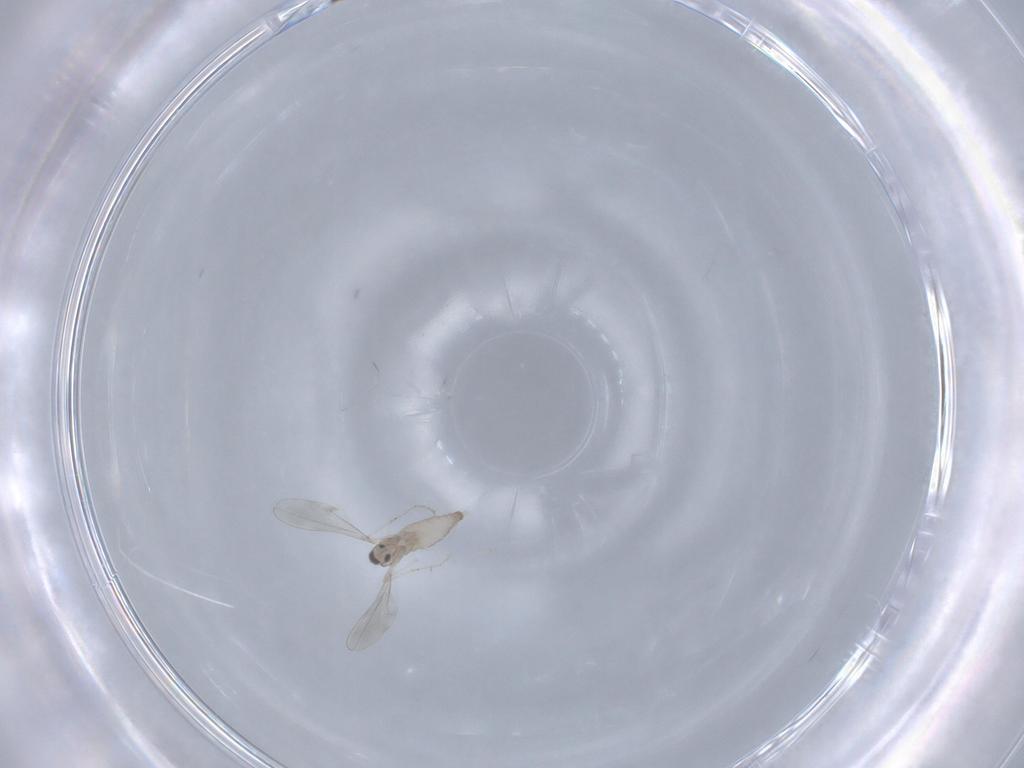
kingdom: Animalia
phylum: Arthropoda
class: Insecta
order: Diptera
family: Cecidomyiidae
